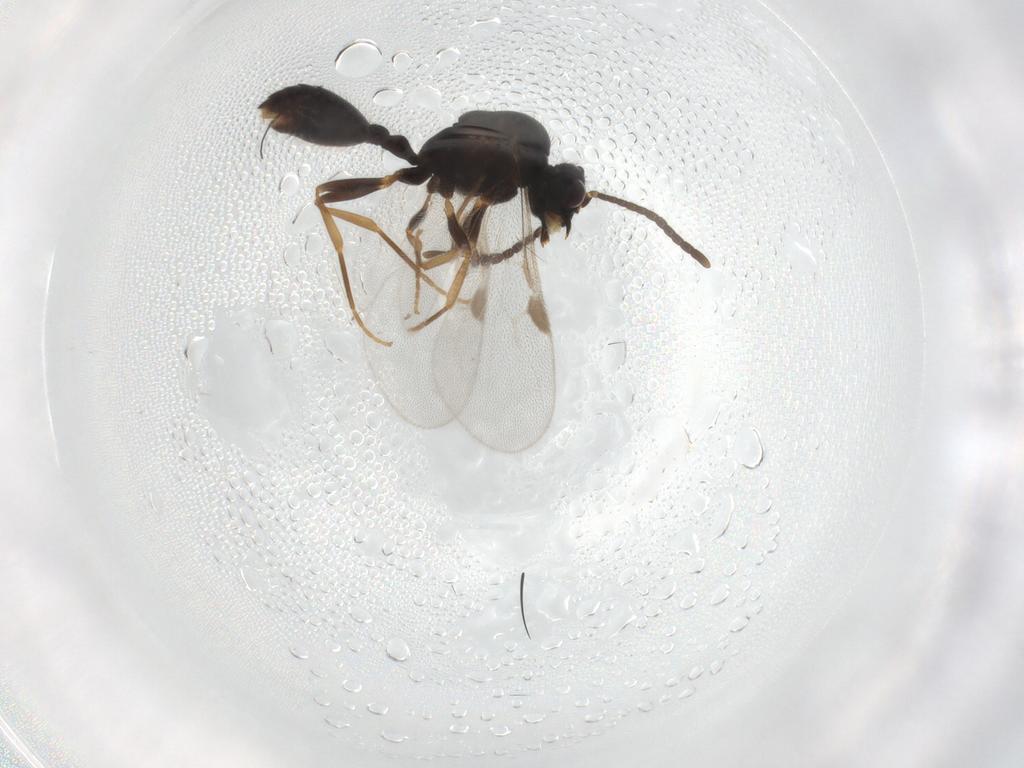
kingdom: Animalia
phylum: Arthropoda
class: Insecta
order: Hymenoptera
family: Formicidae
